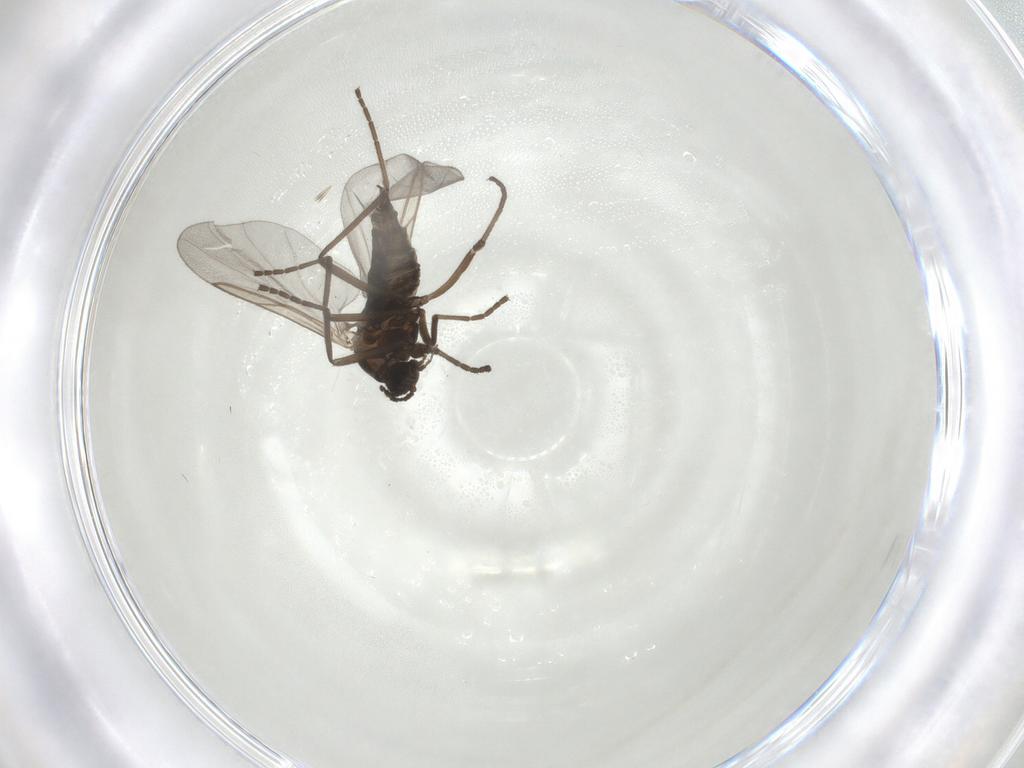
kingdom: Animalia
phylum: Arthropoda
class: Insecta
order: Diptera
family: Cecidomyiidae
